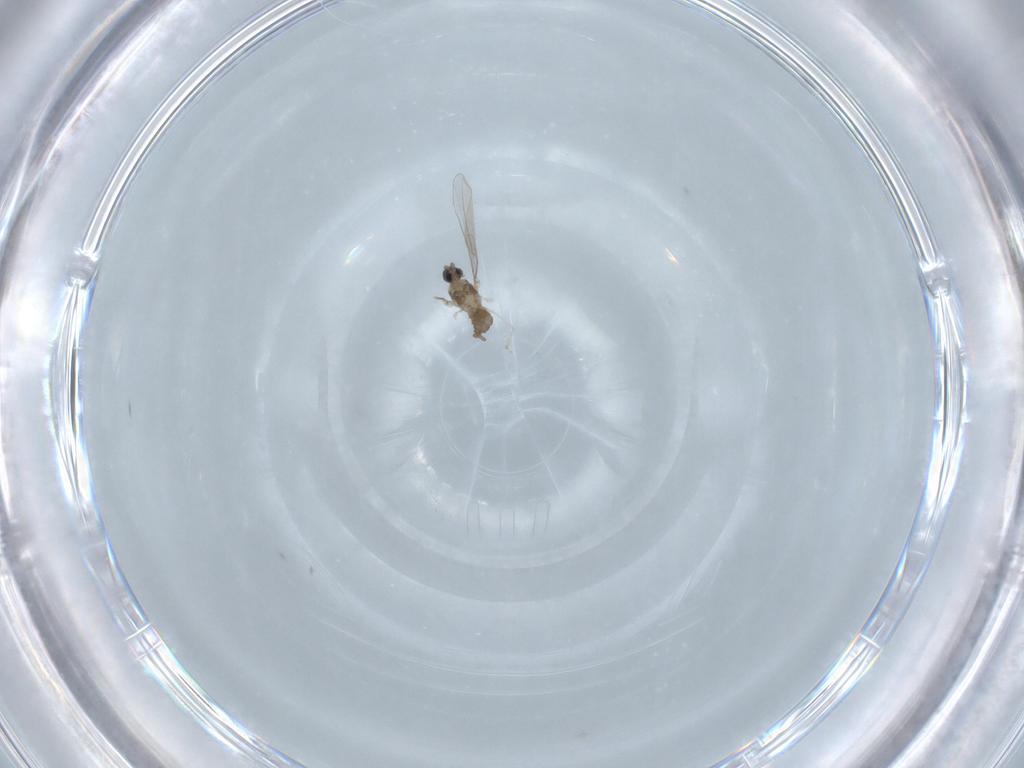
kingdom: Animalia
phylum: Arthropoda
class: Insecta
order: Diptera
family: Cecidomyiidae
